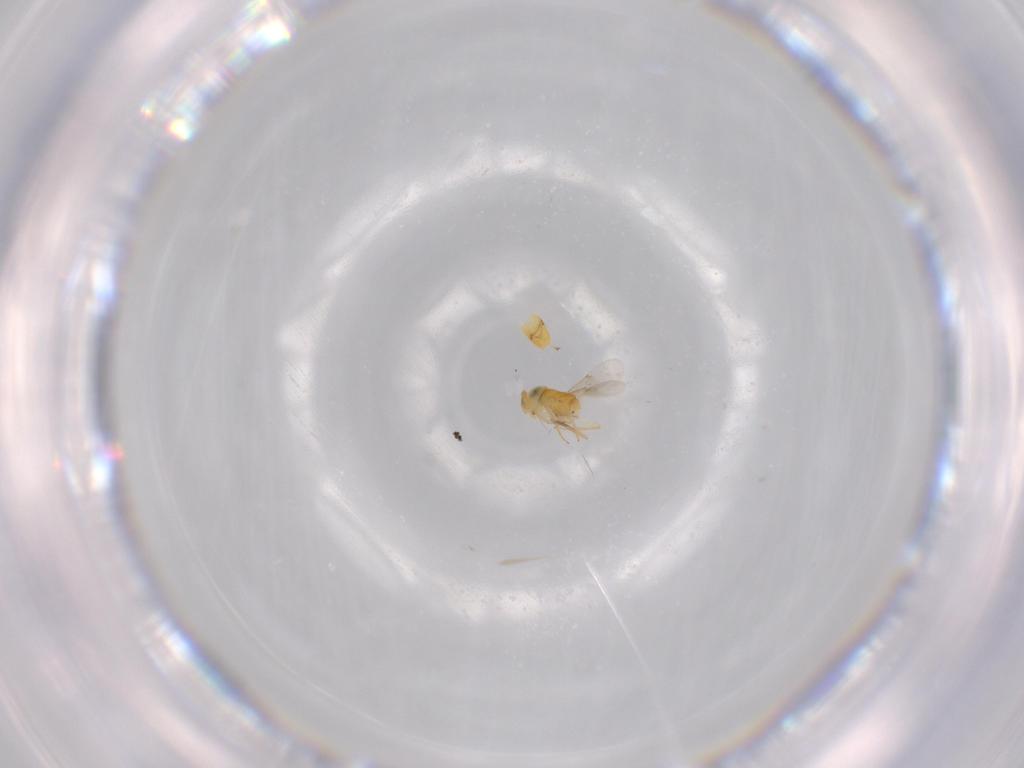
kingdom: Animalia
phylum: Arthropoda
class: Insecta
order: Hymenoptera
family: Encyrtidae
